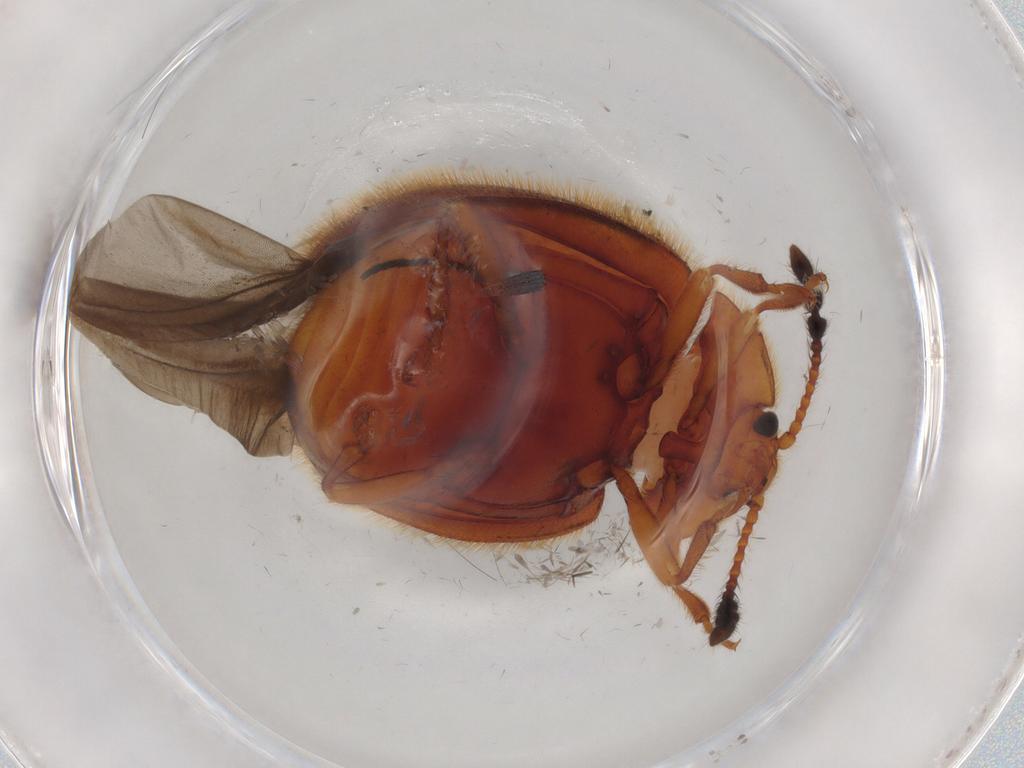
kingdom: Animalia
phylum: Arthropoda
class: Insecta
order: Coleoptera
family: Endomychidae
